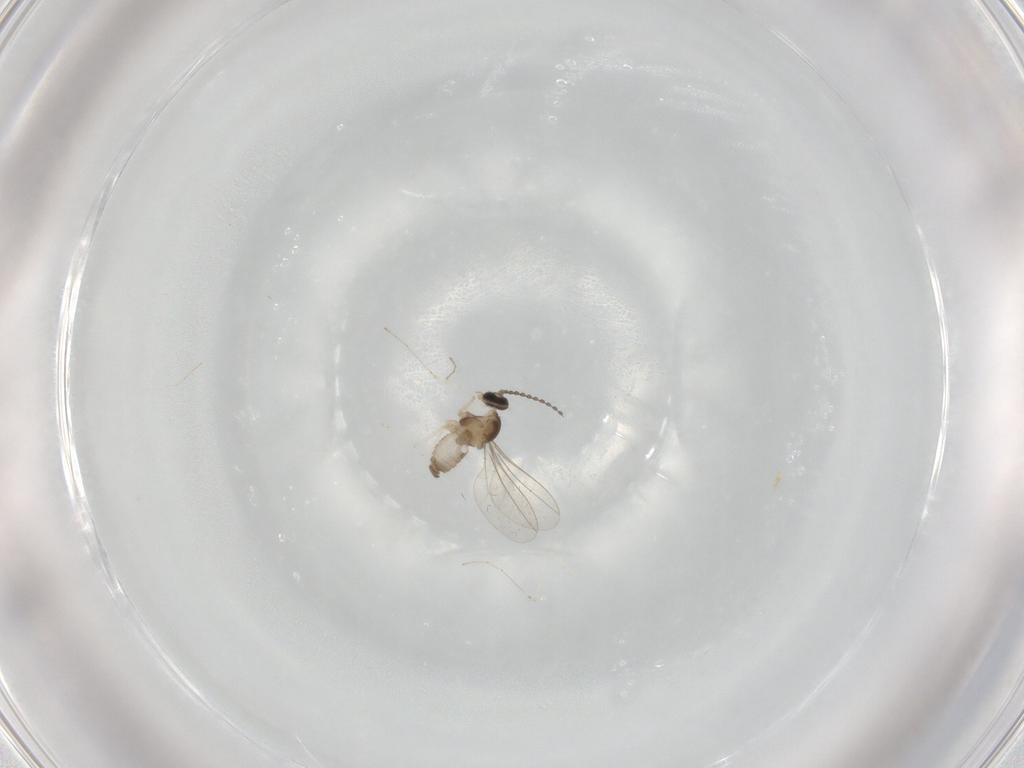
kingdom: Animalia
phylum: Arthropoda
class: Insecta
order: Diptera
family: Cecidomyiidae
